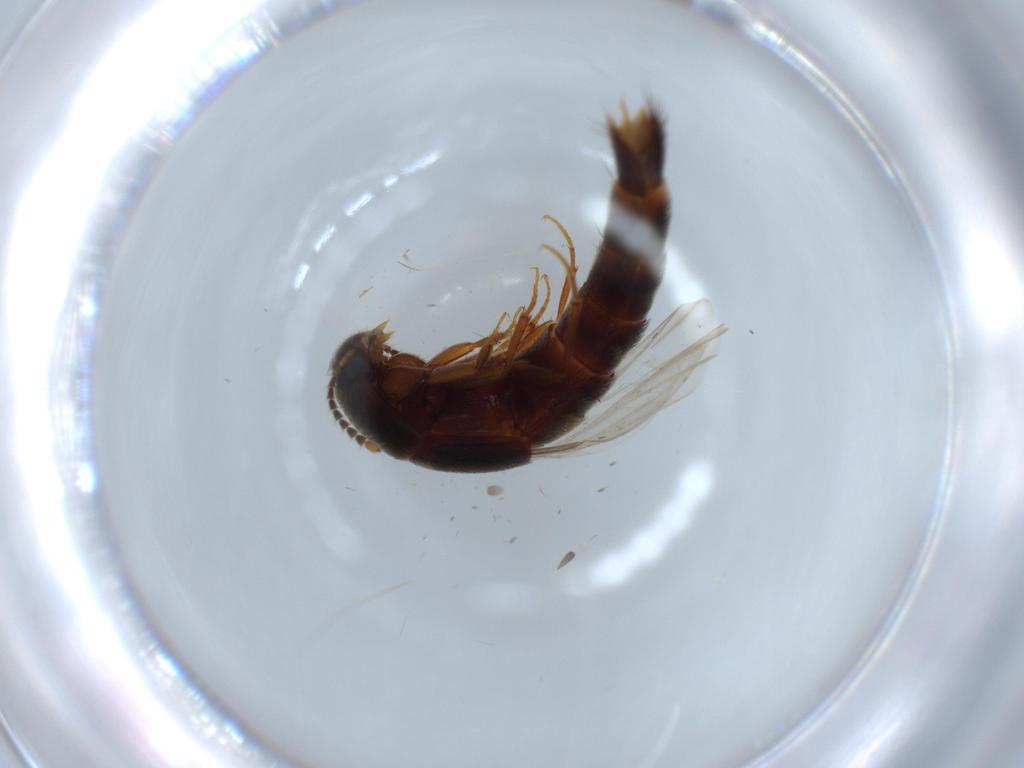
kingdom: Animalia
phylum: Arthropoda
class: Insecta
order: Coleoptera
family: Staphylinidae
